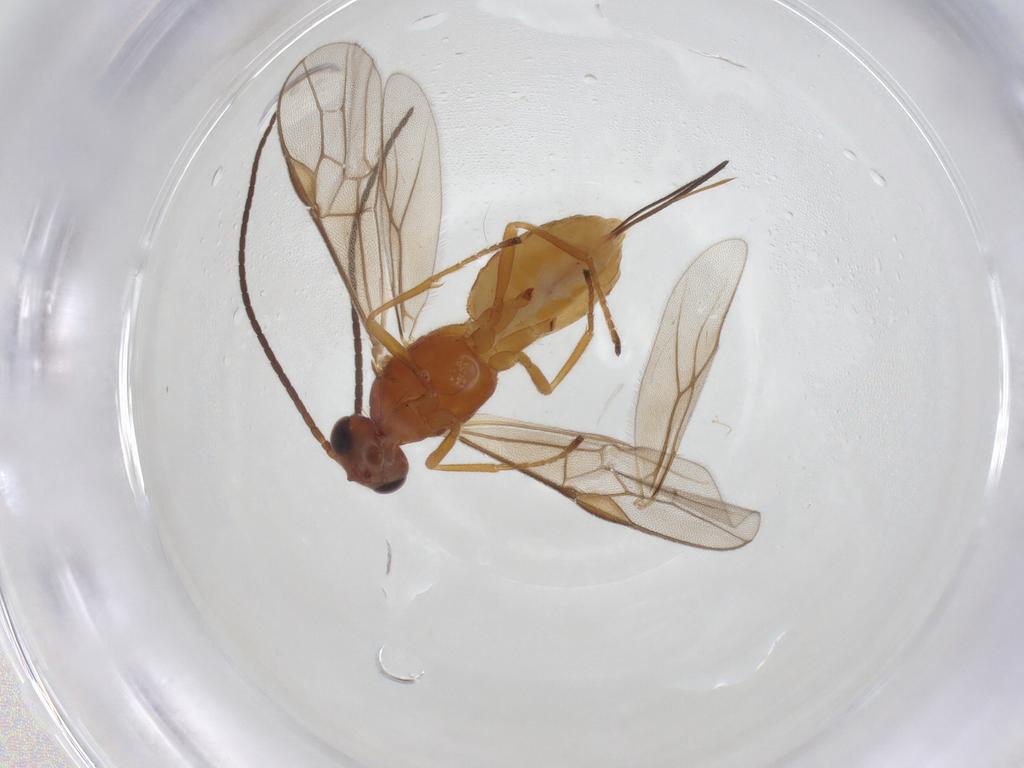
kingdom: Animalia
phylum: Arthropoda
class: Insecta
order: Hymenoptera
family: Braconidae
